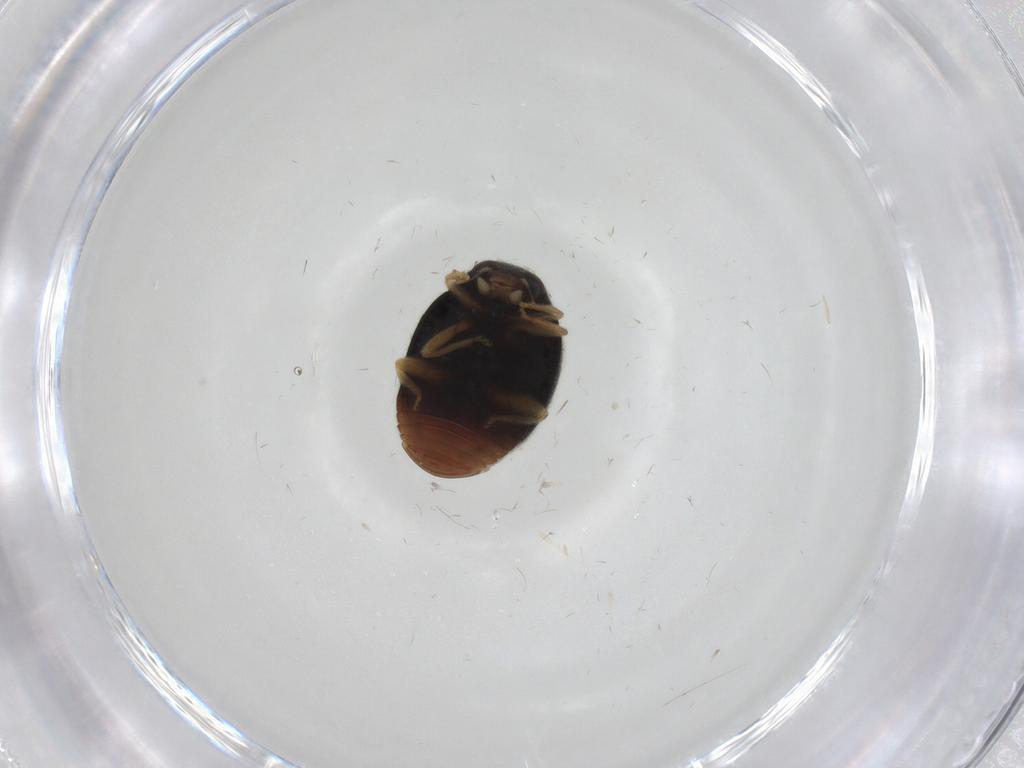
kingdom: Animalia
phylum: Arthropoda
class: Insecta
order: Coleoptera
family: Coccinellidae
